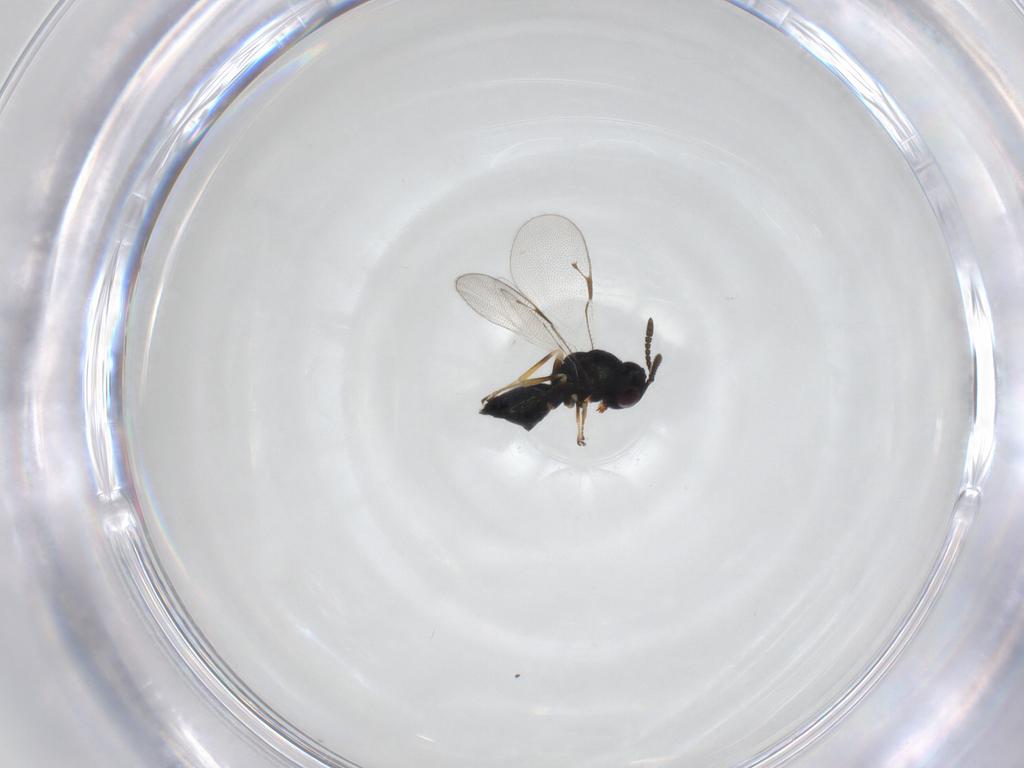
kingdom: Animalia
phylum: Arthropoda
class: Insecta
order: Hymenoptera
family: Pteromalidae
